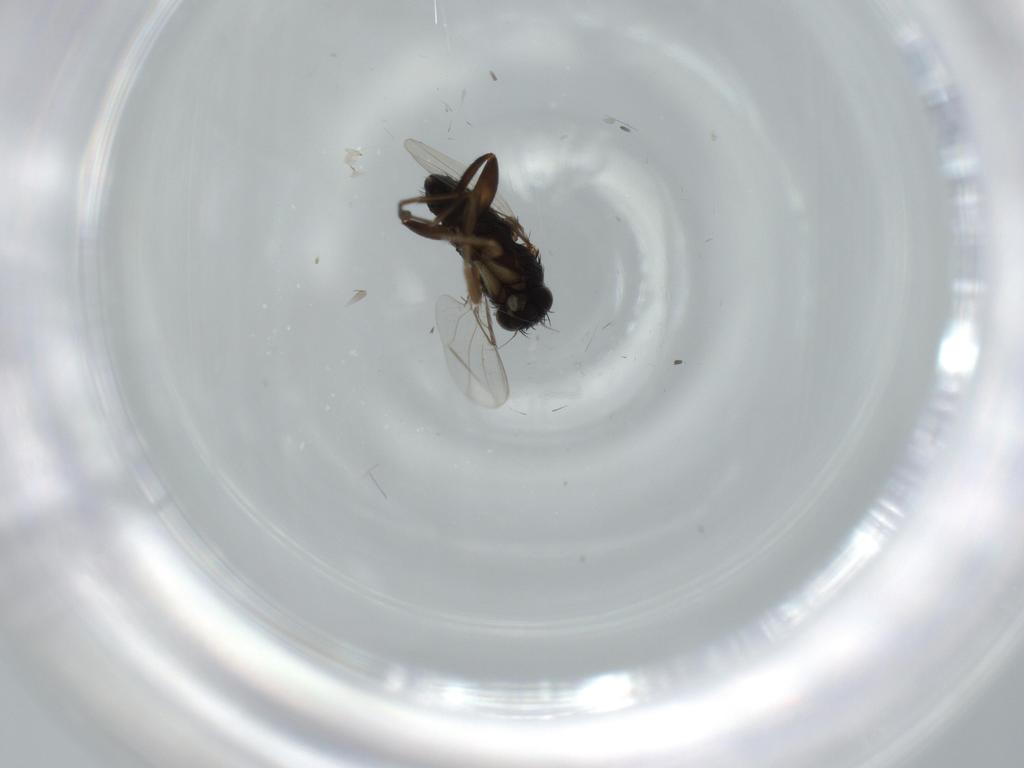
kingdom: Animalia
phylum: Arthropoda
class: Insecta
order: Diptera
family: Phoridae
